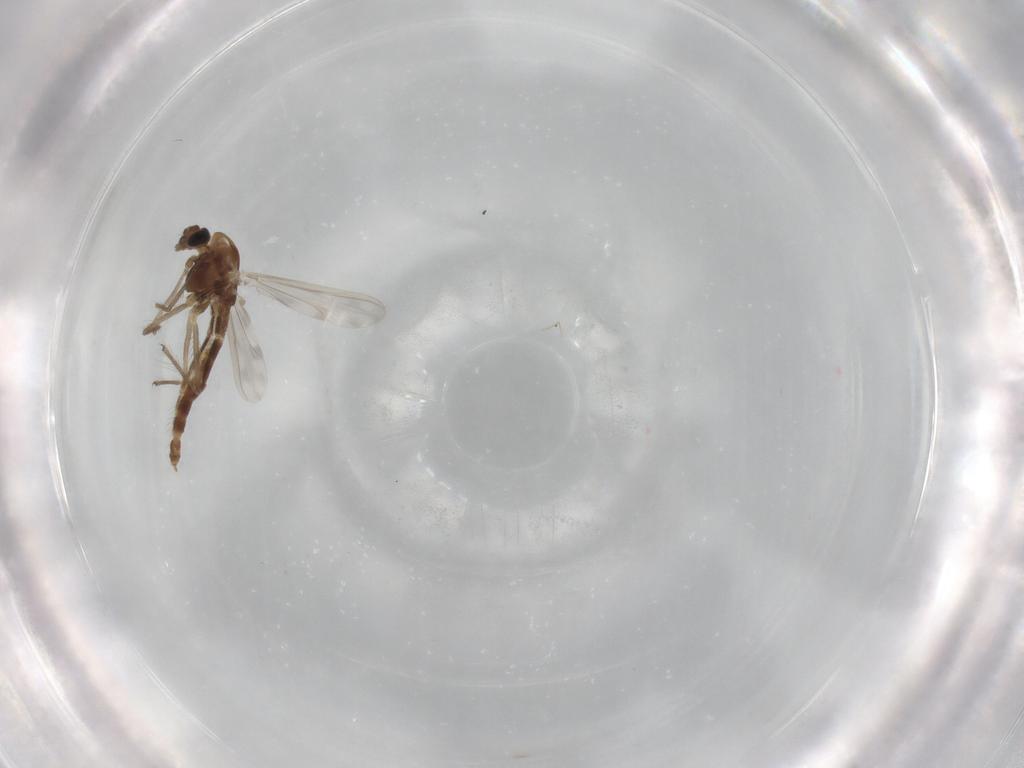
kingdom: Animalia
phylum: Arthropoda
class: Insecta
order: Diptera
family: Chironomidae
